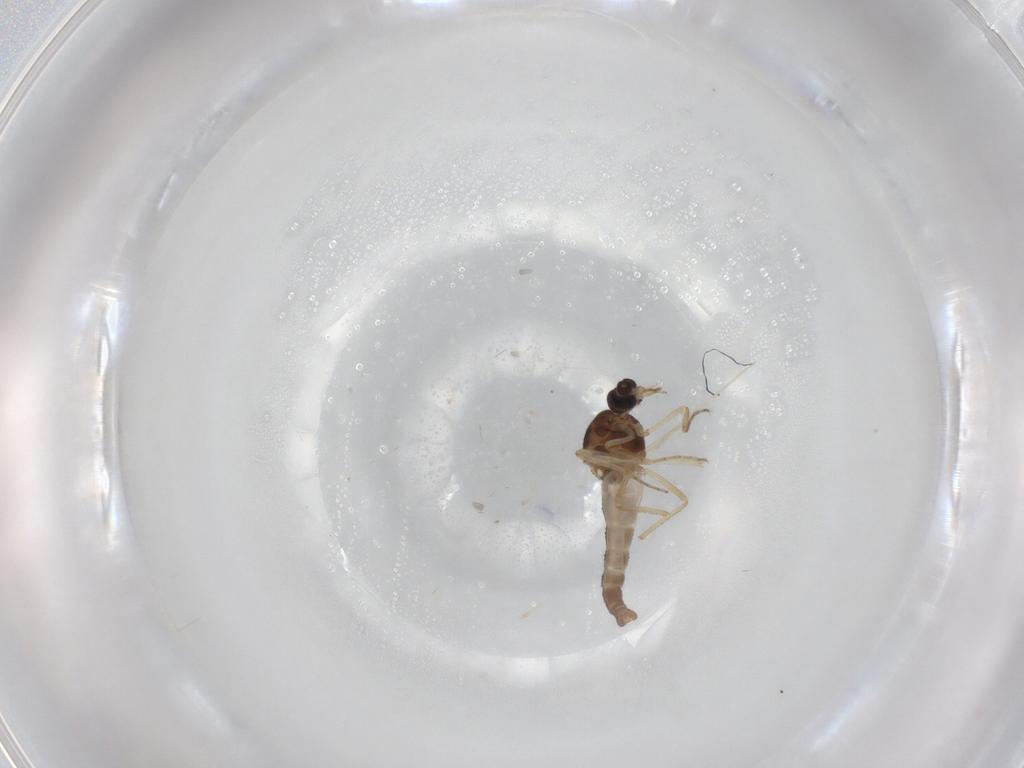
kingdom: Animalia
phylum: Arthropoda
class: Insecta
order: Diptera
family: Ceratopogonidae
